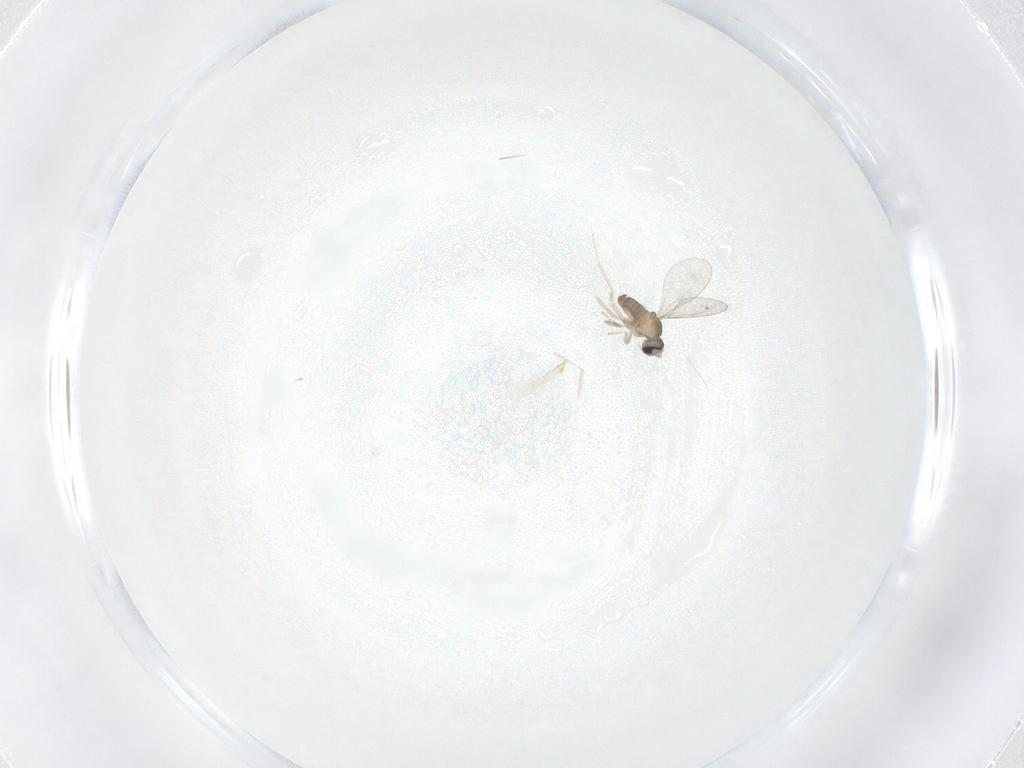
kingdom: Animalia
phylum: Arthropoda
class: Insecta
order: Diptera
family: Cecidomyiidae
